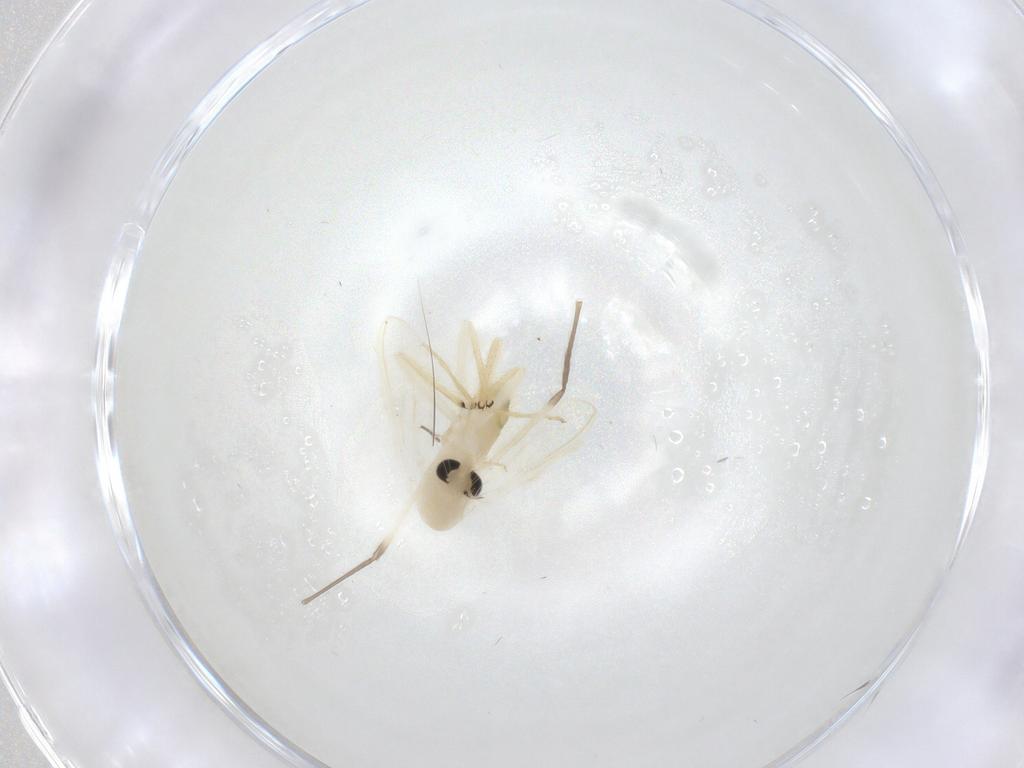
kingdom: Animalia
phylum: Arthropoda
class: Insecta
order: Diptera
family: Chironomidae
